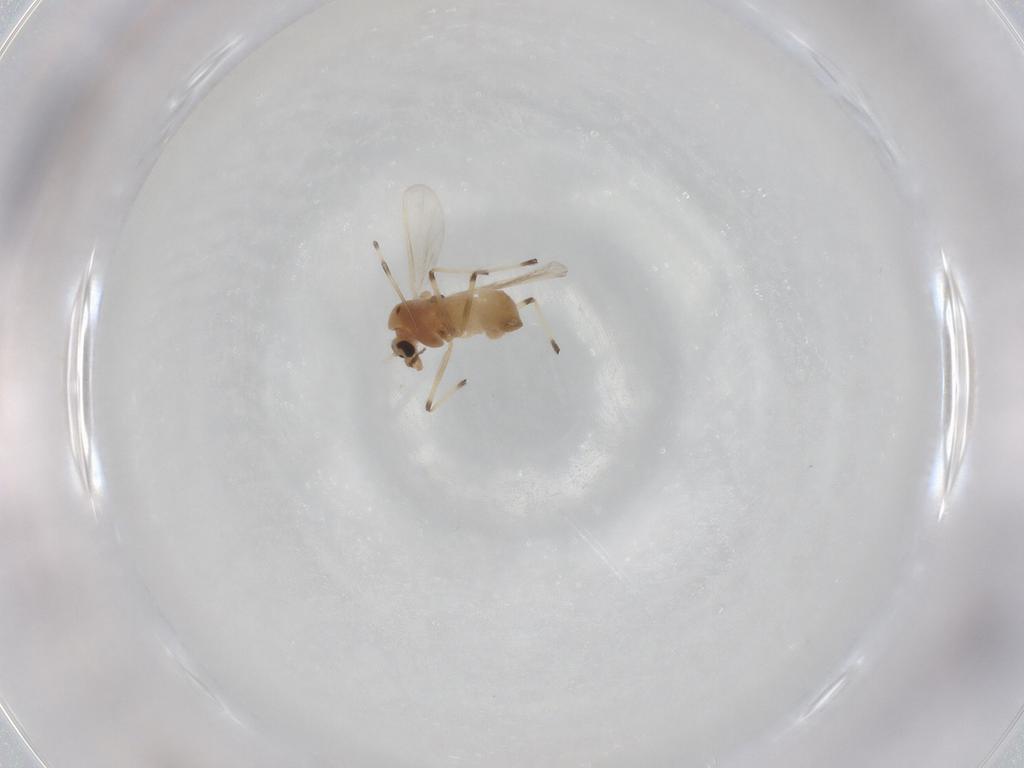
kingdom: Animalia
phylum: Arthropoda
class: Insecta
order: Diptera
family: Chironomidae
